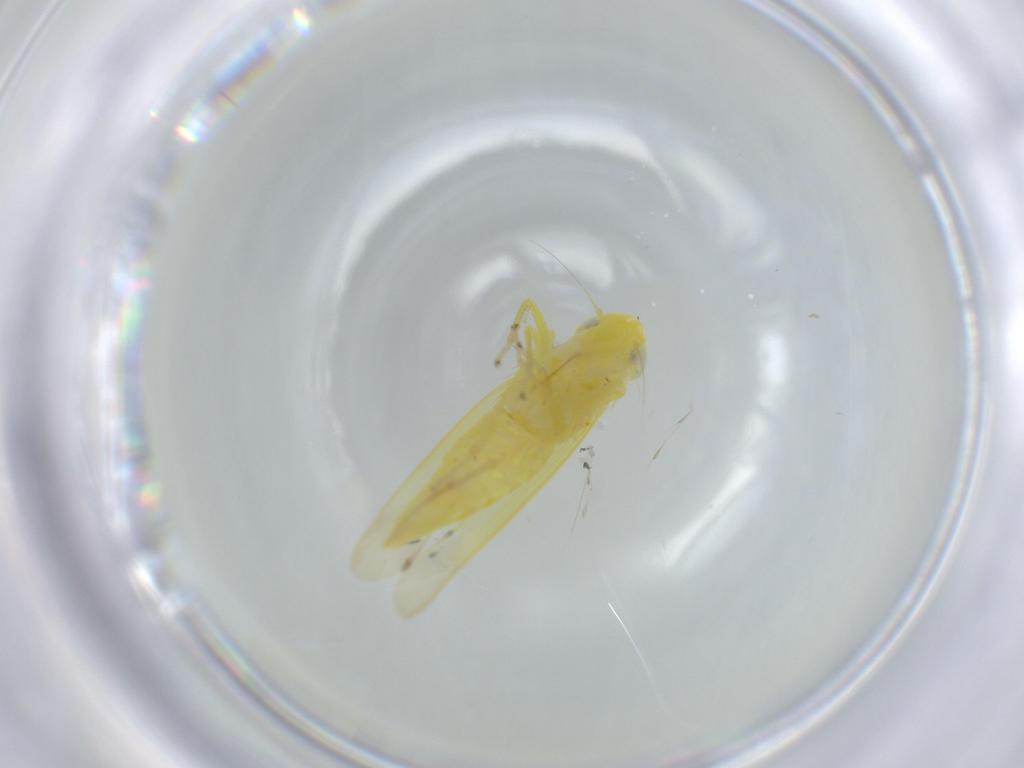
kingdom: Animalia
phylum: Arthropoda
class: Insecta
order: Hemiptera
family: Cicadellidae
